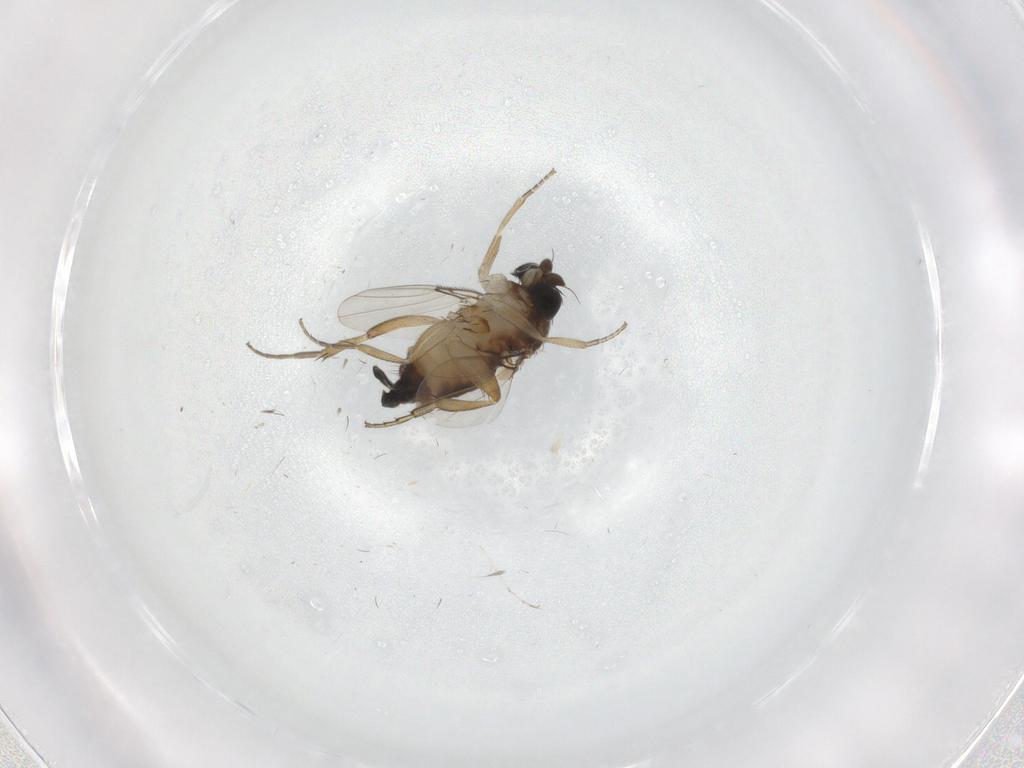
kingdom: Animalia
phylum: Arthropoda
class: Insecta
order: Diptera
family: Phoridae
